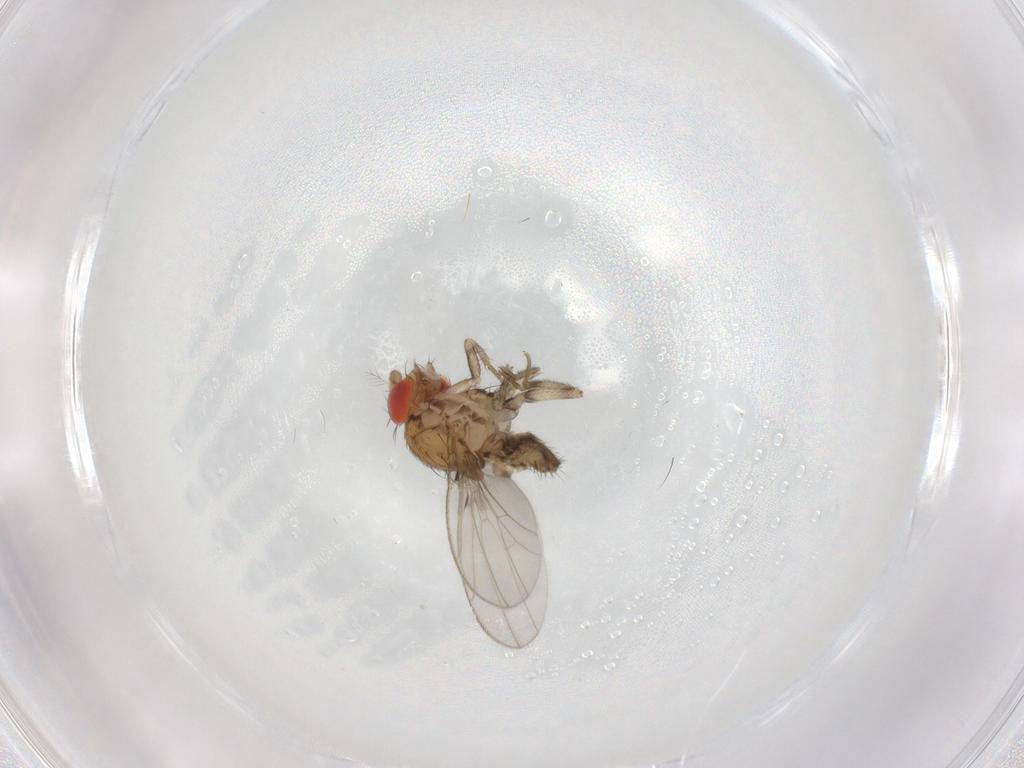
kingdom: Animalia
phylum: Arthropoda
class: Insecta
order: Diptera
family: Drosophilidae
